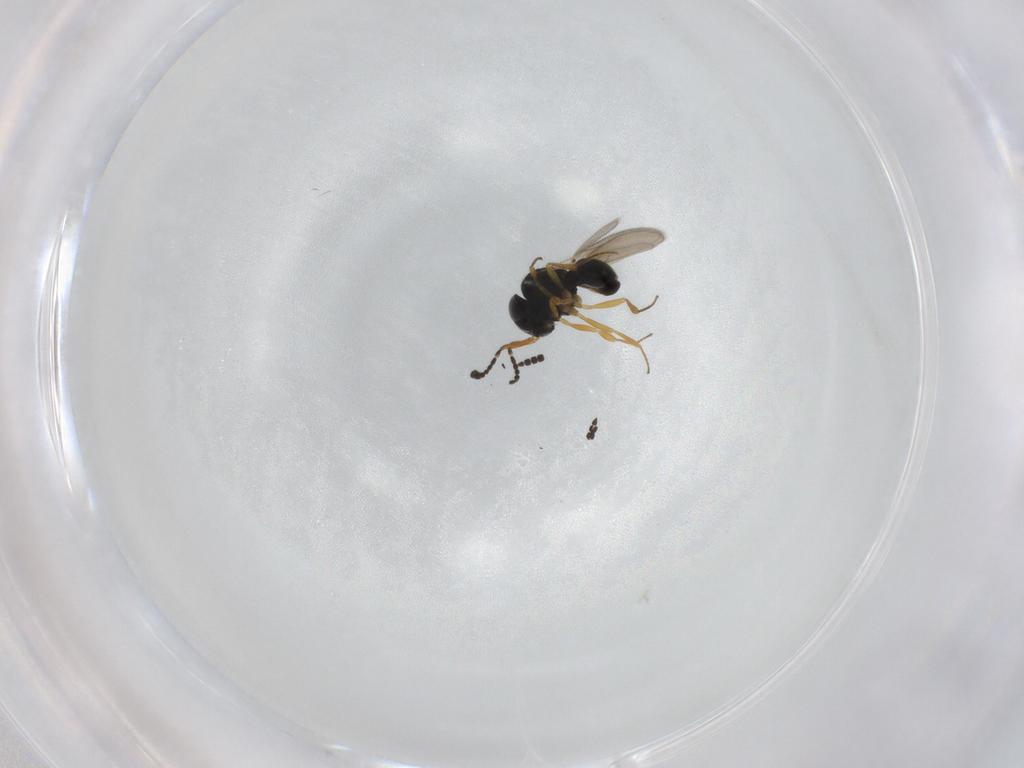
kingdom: Animalia
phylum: Arthropoda
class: Insecta
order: Hymenoptera
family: Scelionidae
